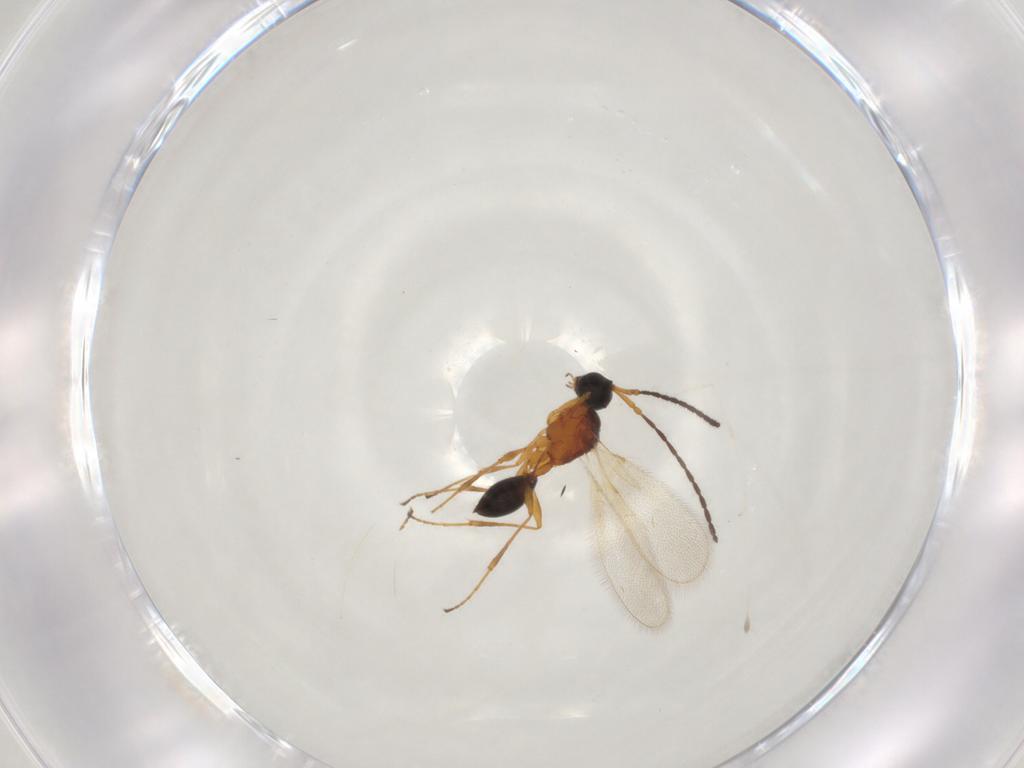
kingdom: Animalia
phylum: Arthropoda
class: Insecta
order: Hymenoptera
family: Diapriidae
